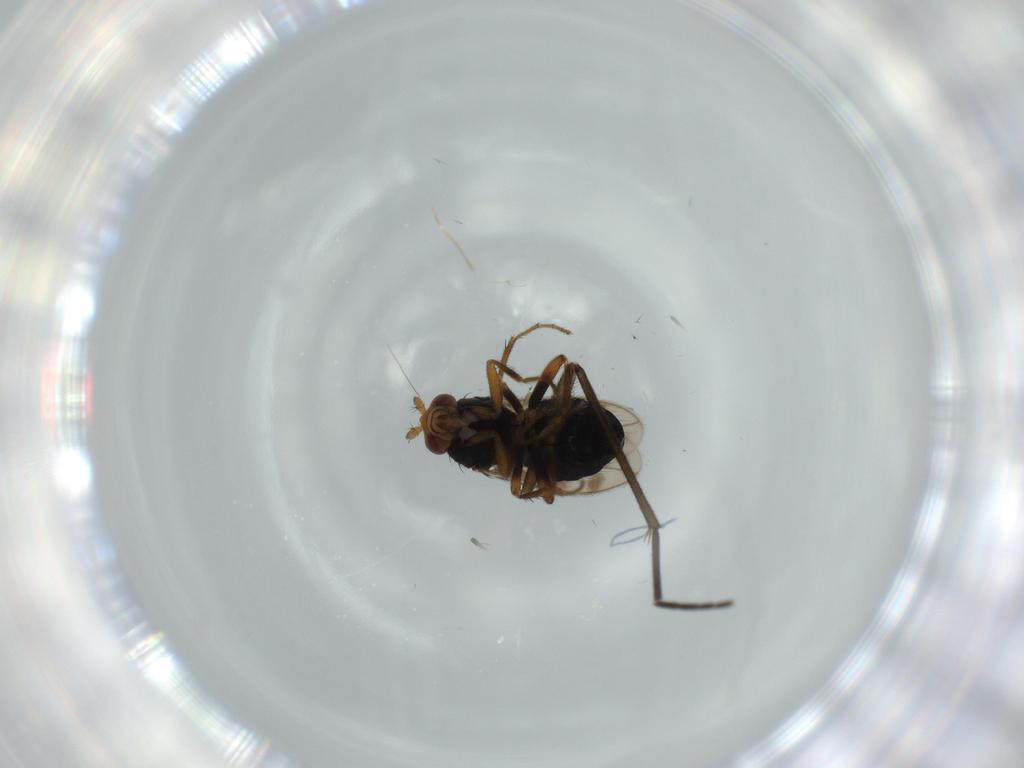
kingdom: Animalia
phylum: Arthropoda
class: Insecta
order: Diptera
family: Sphaeroceridae
